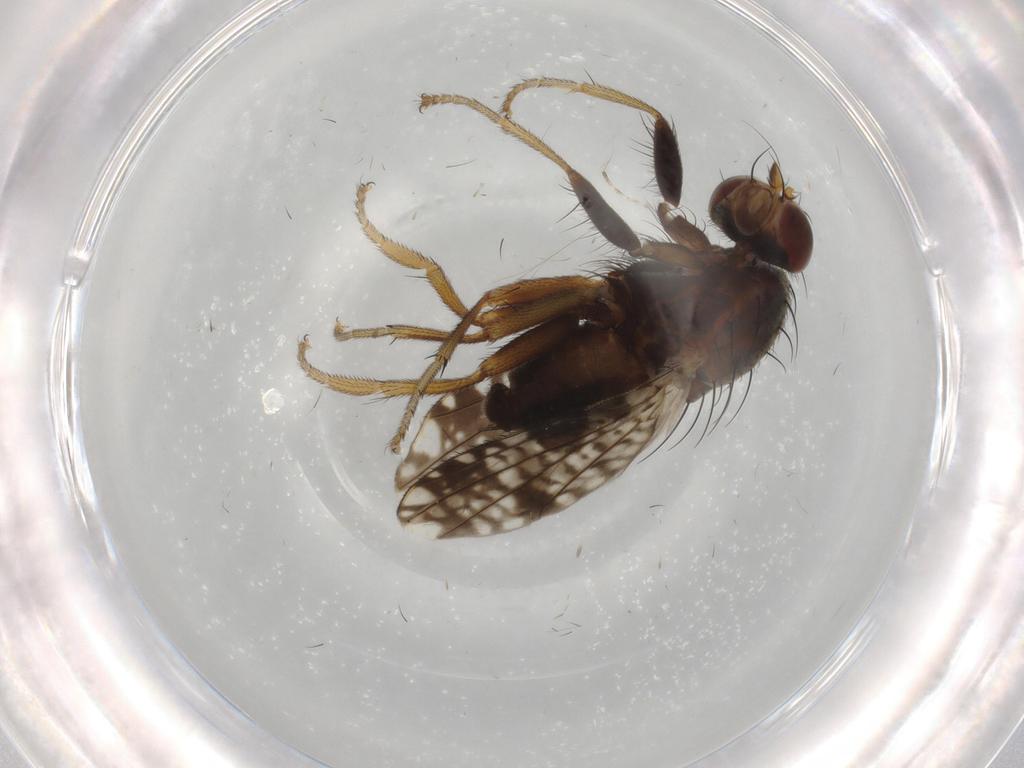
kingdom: Animalia
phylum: Arthropoda
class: Insecta
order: Diptera
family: Tephritidae
